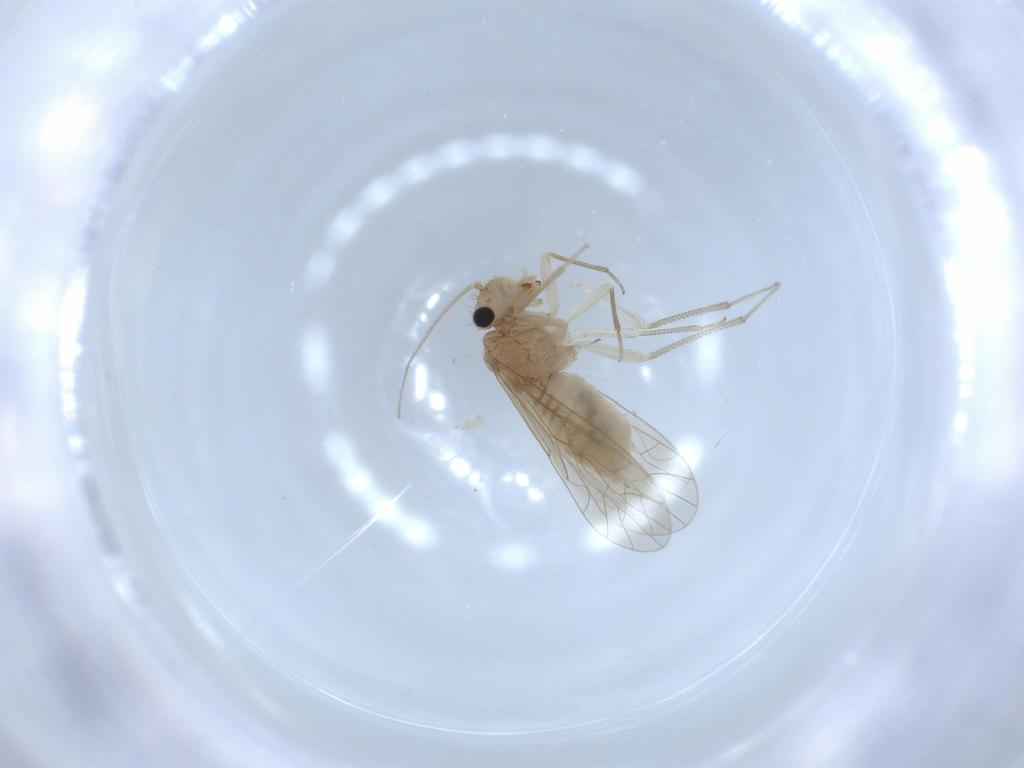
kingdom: Animalia
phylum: Arthropoda
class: Insecta
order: Psocodea
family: Caeciliusidae
